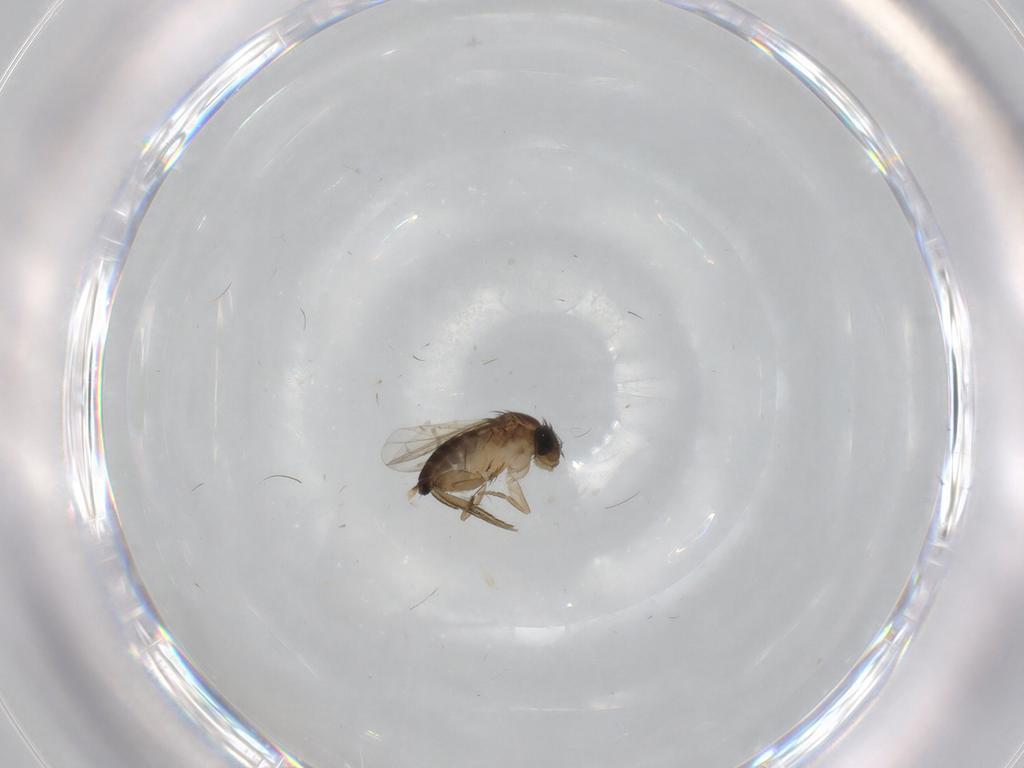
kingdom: Animalia
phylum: Arthropoda
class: Insecta
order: Diptera
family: Phoridae
